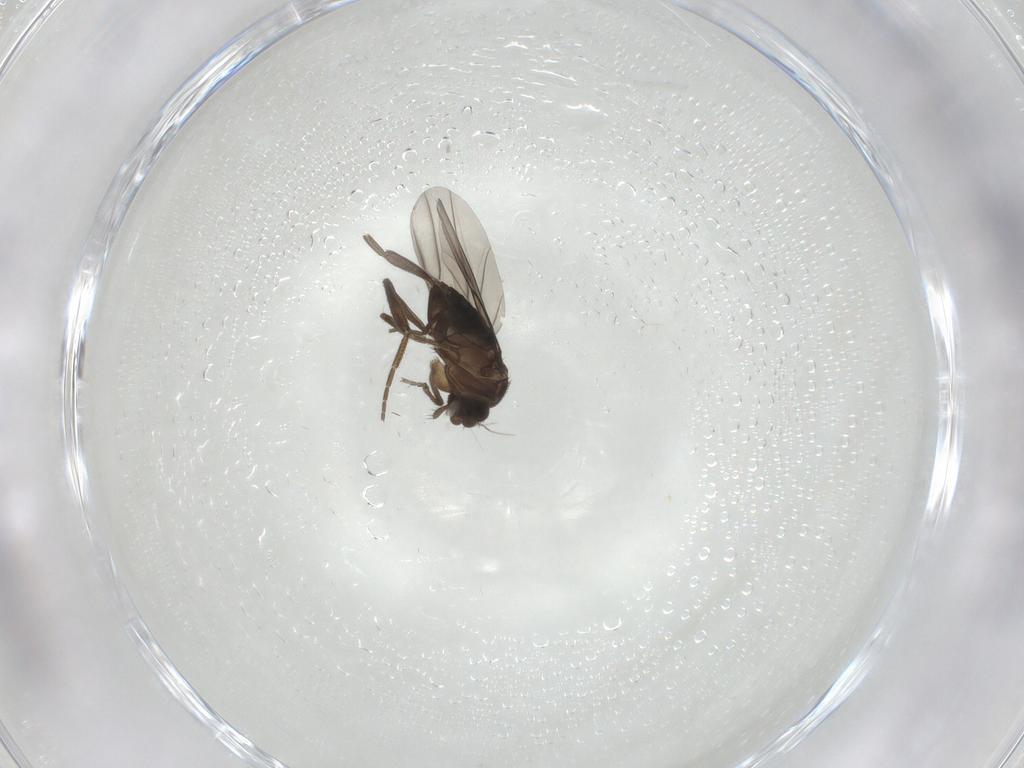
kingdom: Animalia
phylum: Arthropoda
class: Insecta
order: Diptera
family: Phoridae
